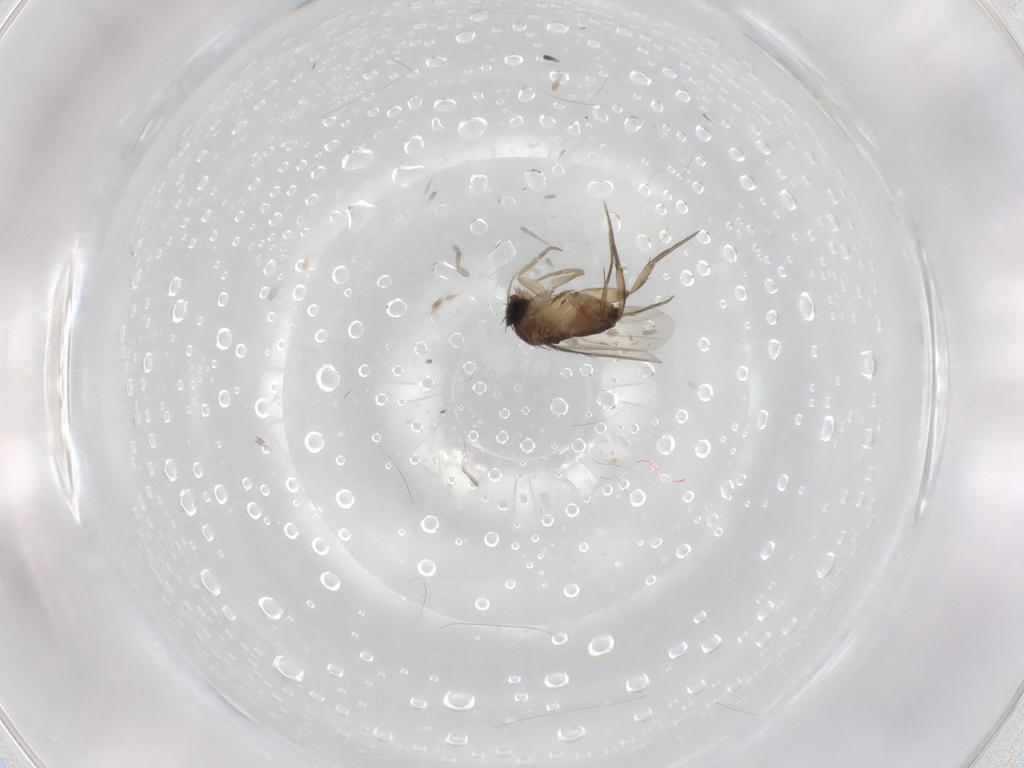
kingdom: Animalia
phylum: Arthropoda
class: Insecta
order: Diptera
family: Phoridae
